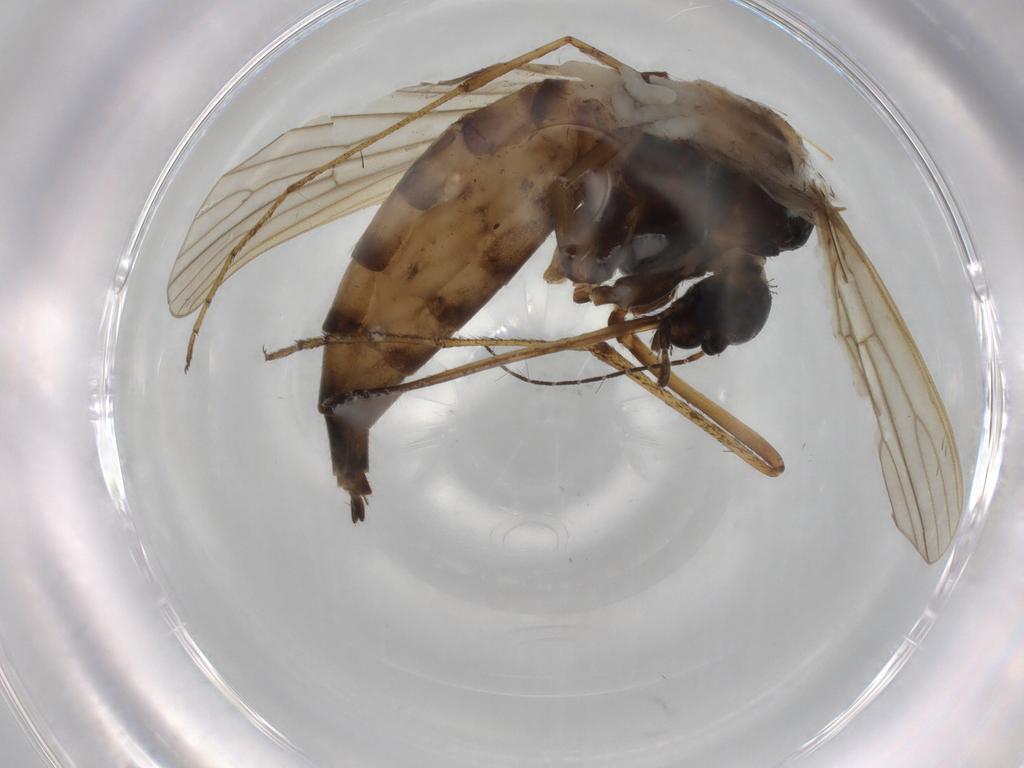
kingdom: Animalia
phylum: Arthropoda
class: Insecta
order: Diptera
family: Culicidae
